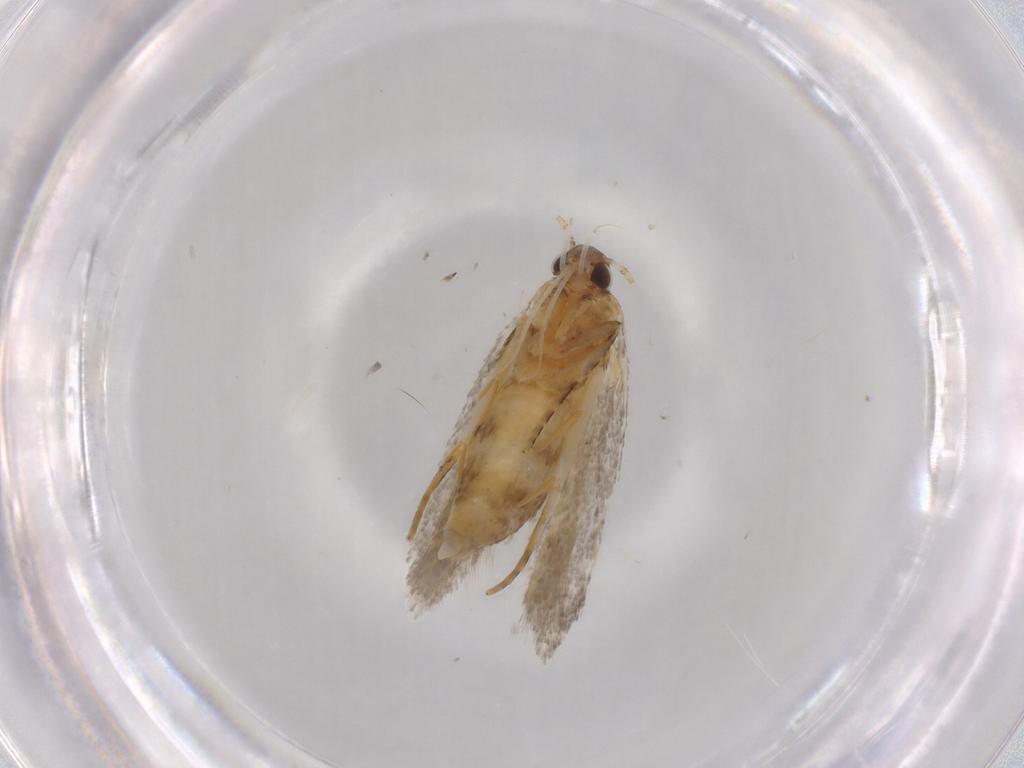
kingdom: Animalia
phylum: Arthropoda
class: Insecta
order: Lepidoptera
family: Autostichidae
